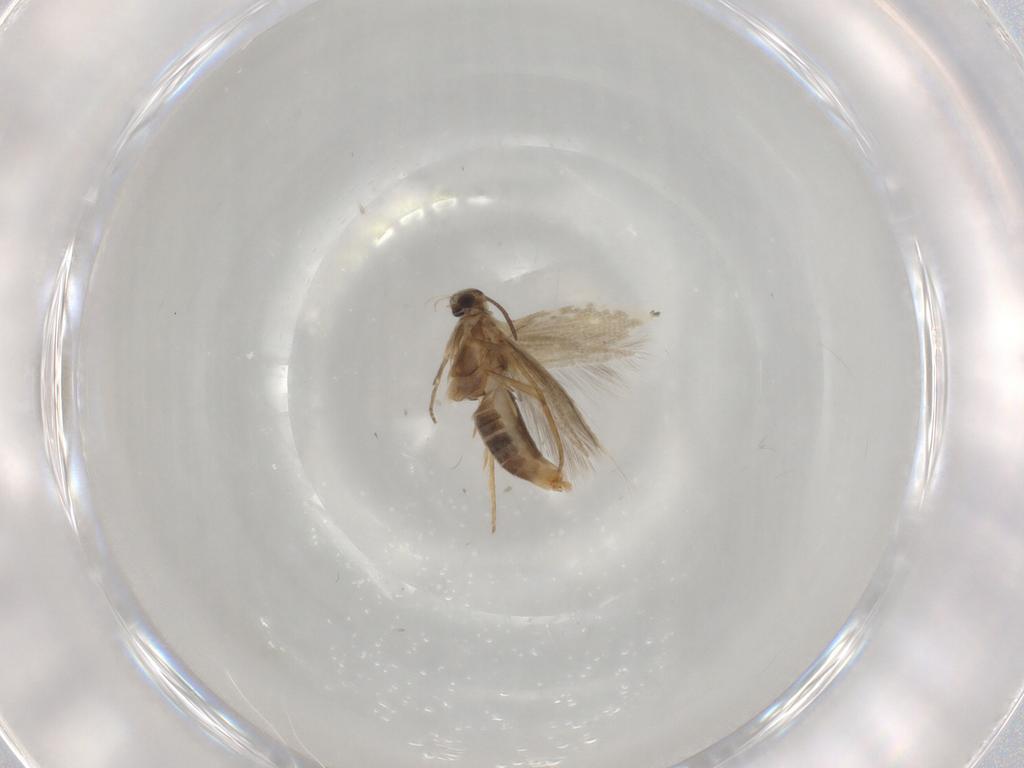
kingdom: Animalia
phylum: Arthropoda
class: Insecta
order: Lepidoptera
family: Heliozelidae
